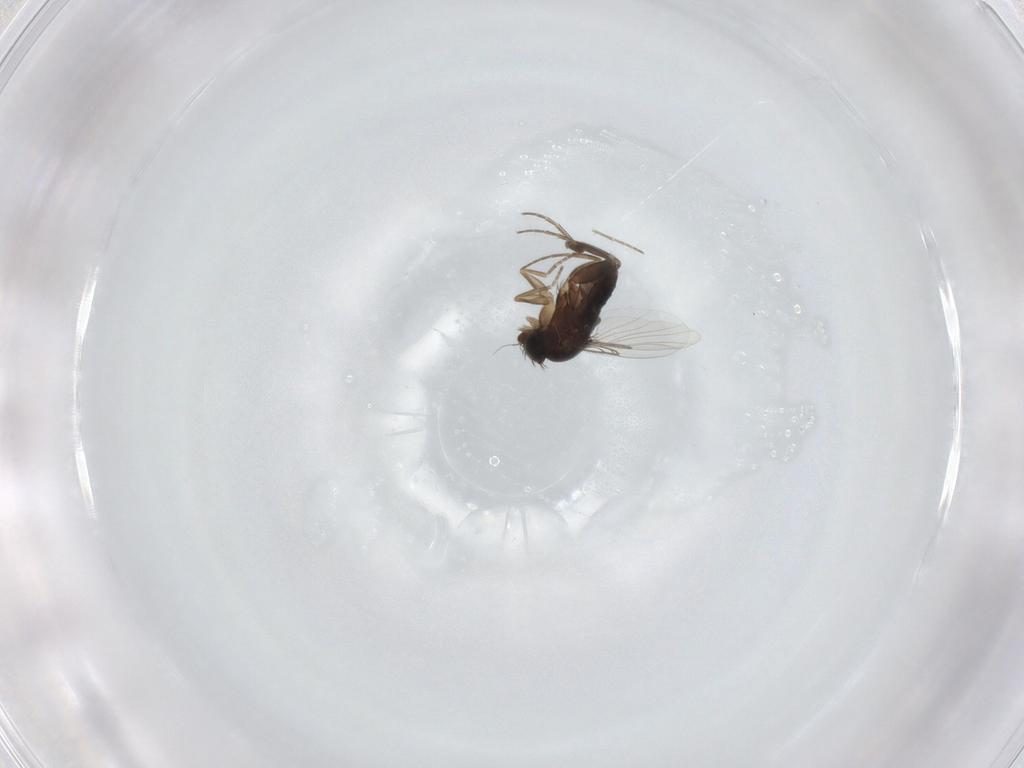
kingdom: Animalia
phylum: Arthropoda
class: Insecta
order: Diptera
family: Phoridae
